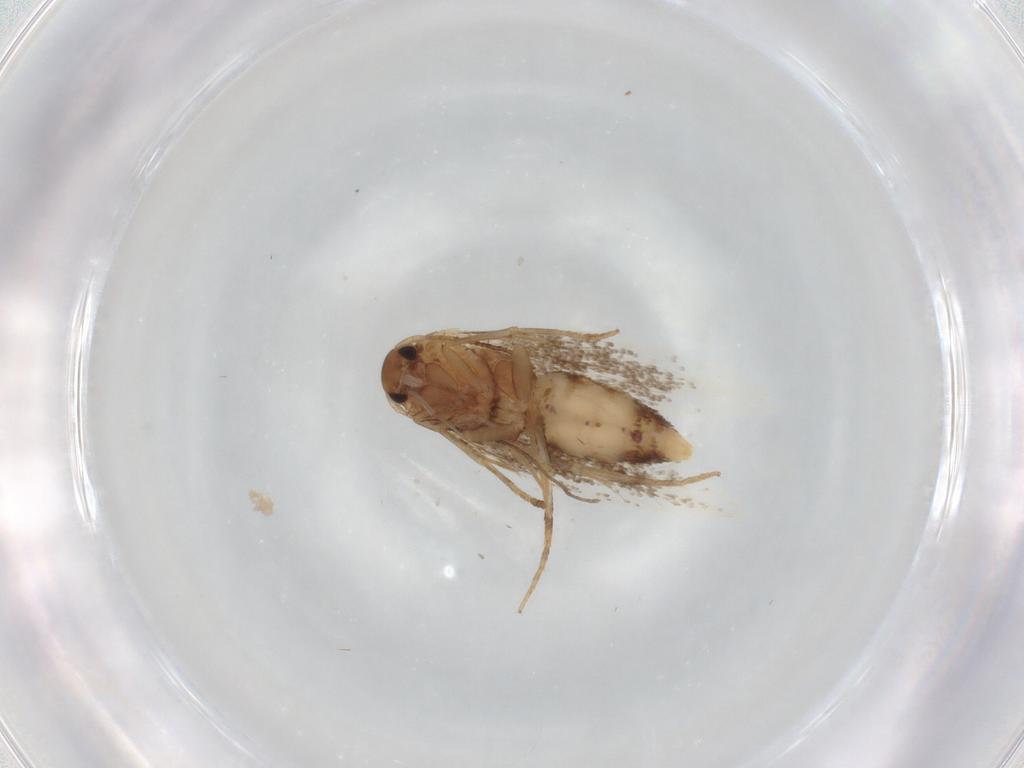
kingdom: Animalia
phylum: Arthropoda
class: Insecta
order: Lepidoptera
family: Elachistidae
